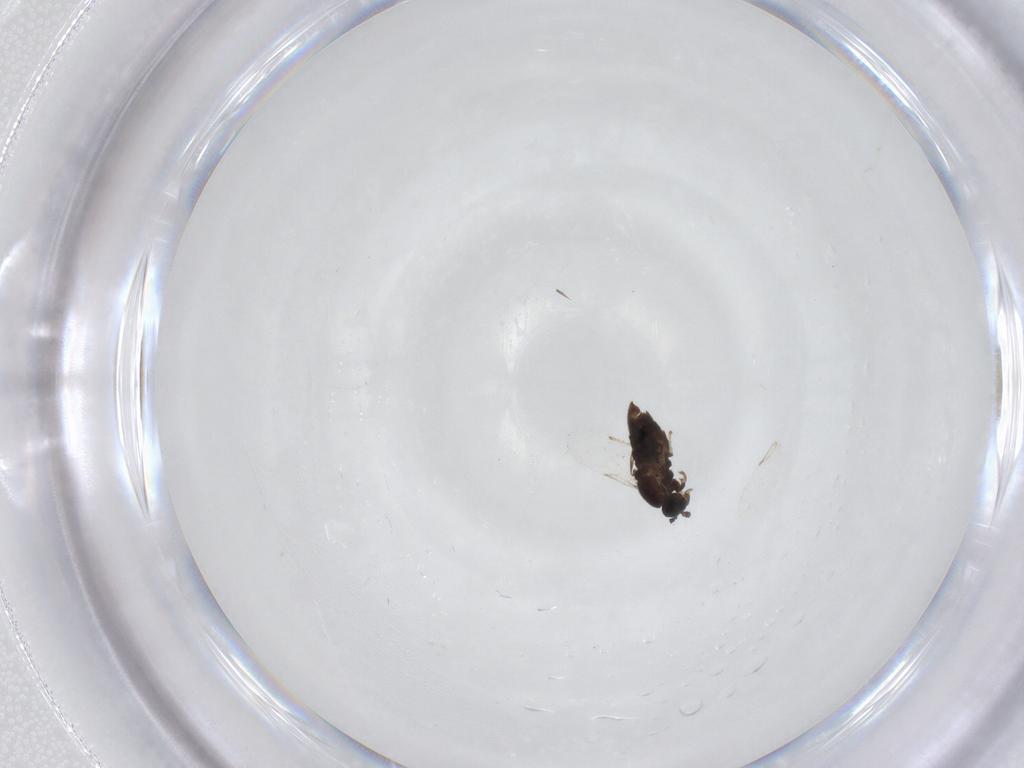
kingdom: Animalia
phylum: Arthropoda
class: Insecta
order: Diptera
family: Scatopsidae
